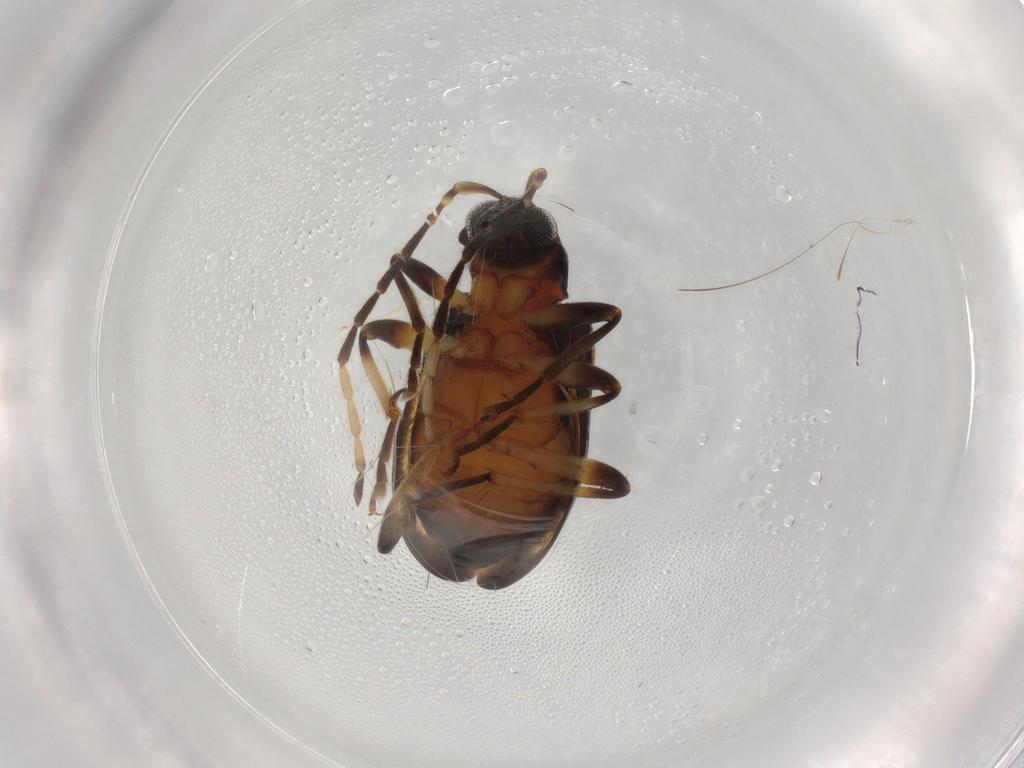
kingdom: Animalia
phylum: Arthropoda
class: Insecta
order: Coleoptera
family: Chrysomelidae
